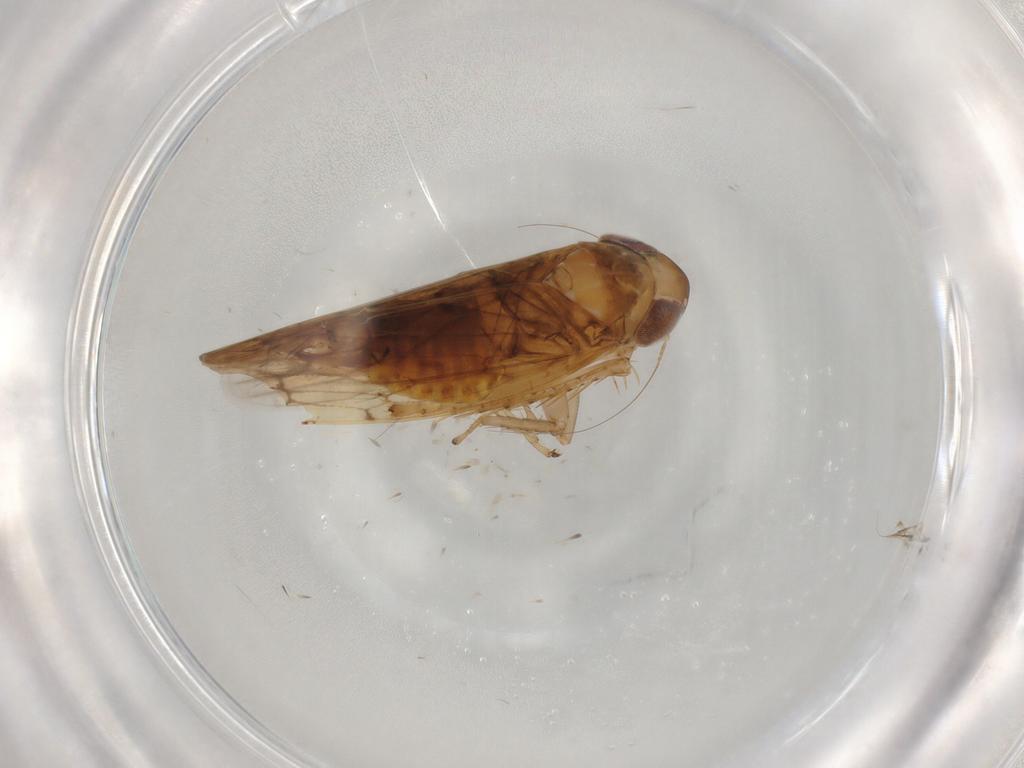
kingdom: Animalia
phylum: Arthropoda
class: Insecta
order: Hemiptera
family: Cicadellidae
